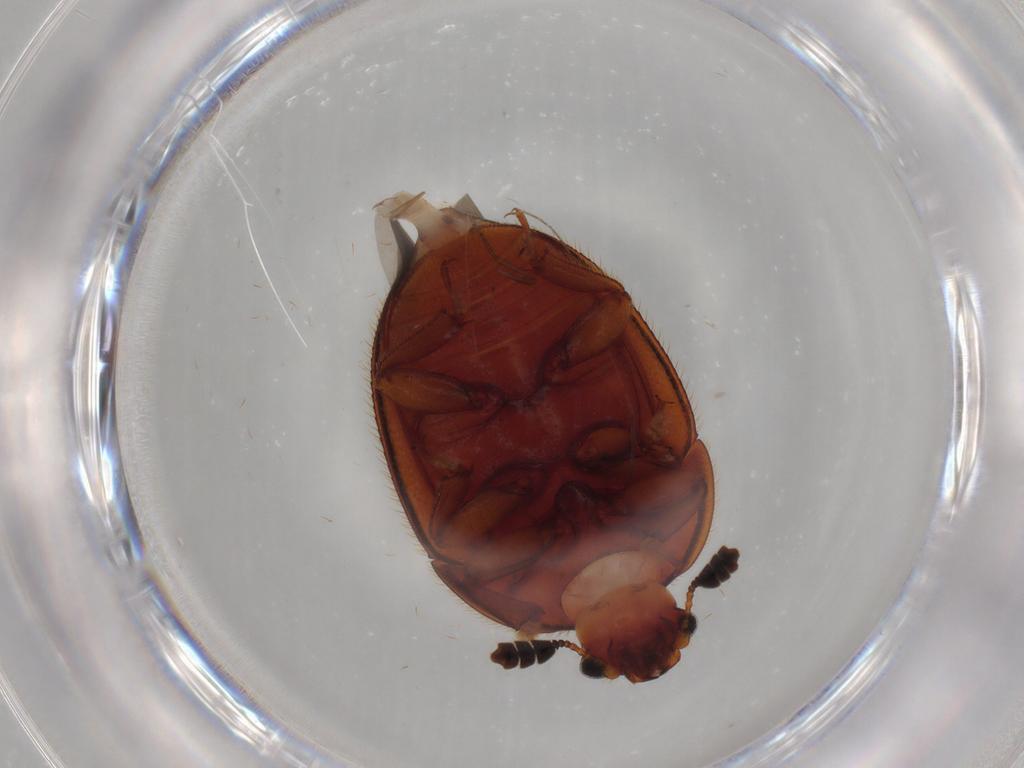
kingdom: Animalia
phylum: Arthropoda
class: Insecta
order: Coleoptera
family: Nitidulidae
